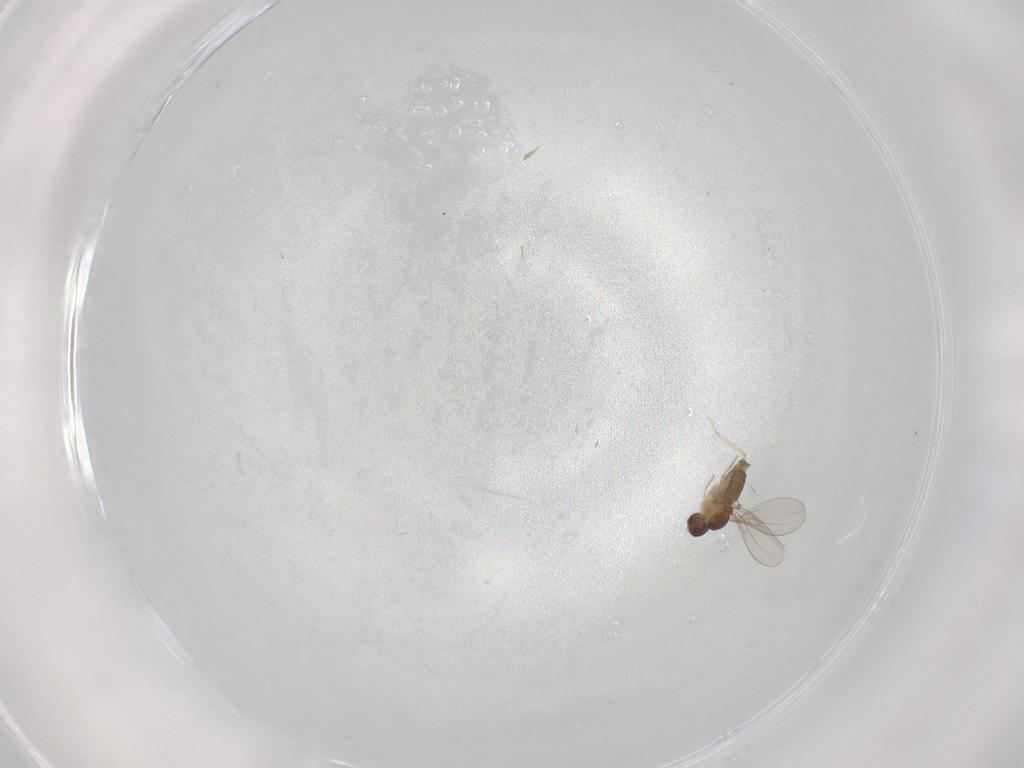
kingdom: Animalia
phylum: Arthropoda
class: Insecta
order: Diptera
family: Cecidomyiidae
